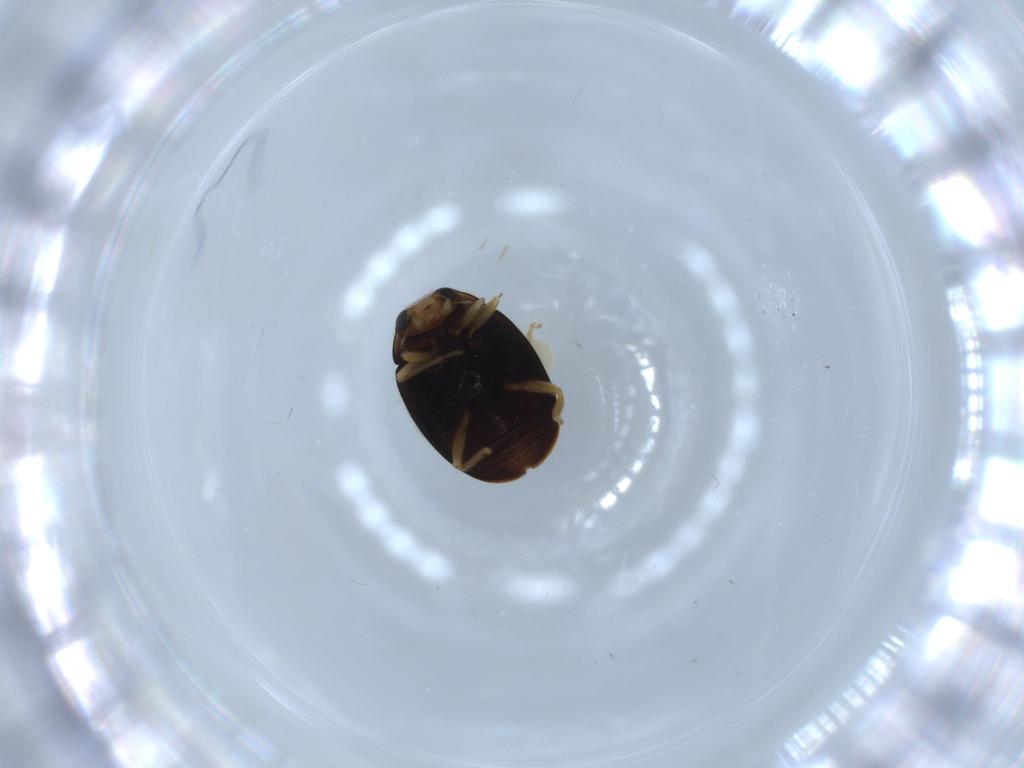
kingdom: Animalia
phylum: Arthropoda
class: Insecta
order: Coleoptera
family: Coccinellidae
